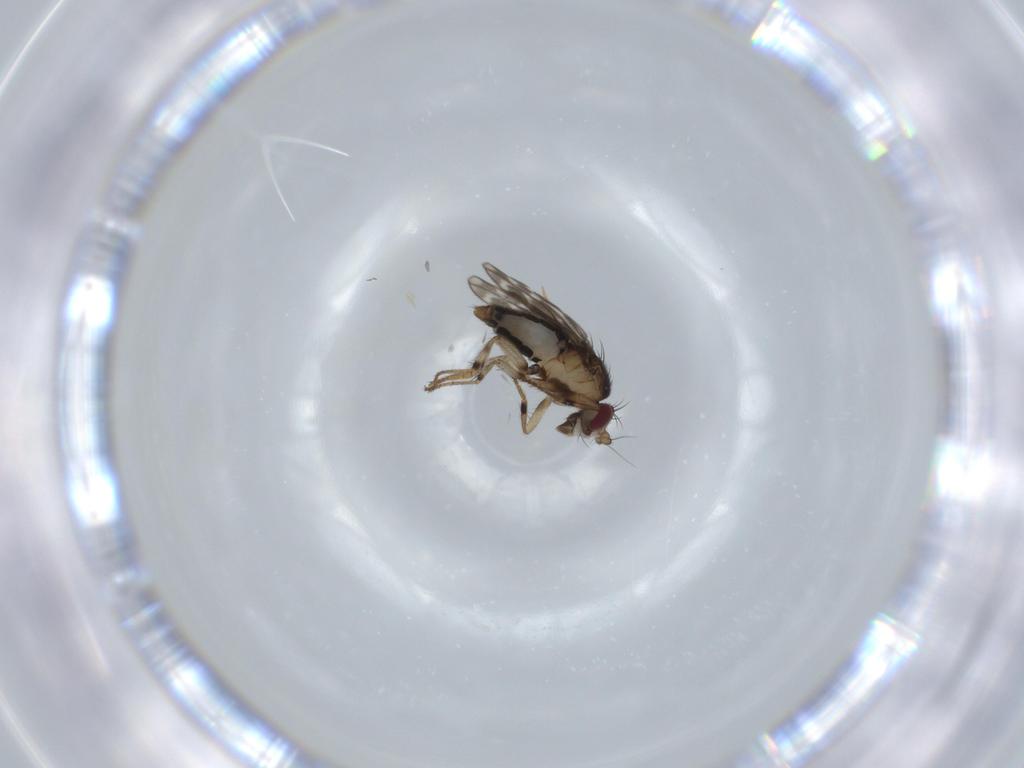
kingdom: Animalia
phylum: Arthropoda
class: Insecta
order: Diptera
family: Sphaeroceridae
